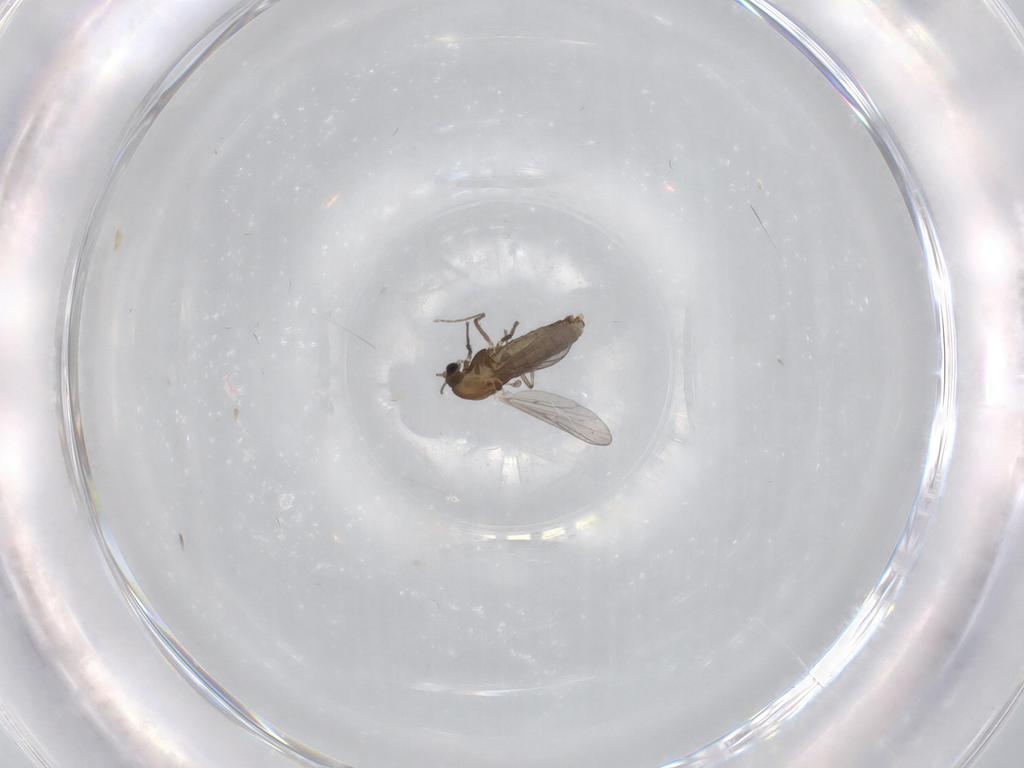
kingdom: Animalia
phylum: Arthropoda
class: Insecta
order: Diptera
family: Chironomidae
